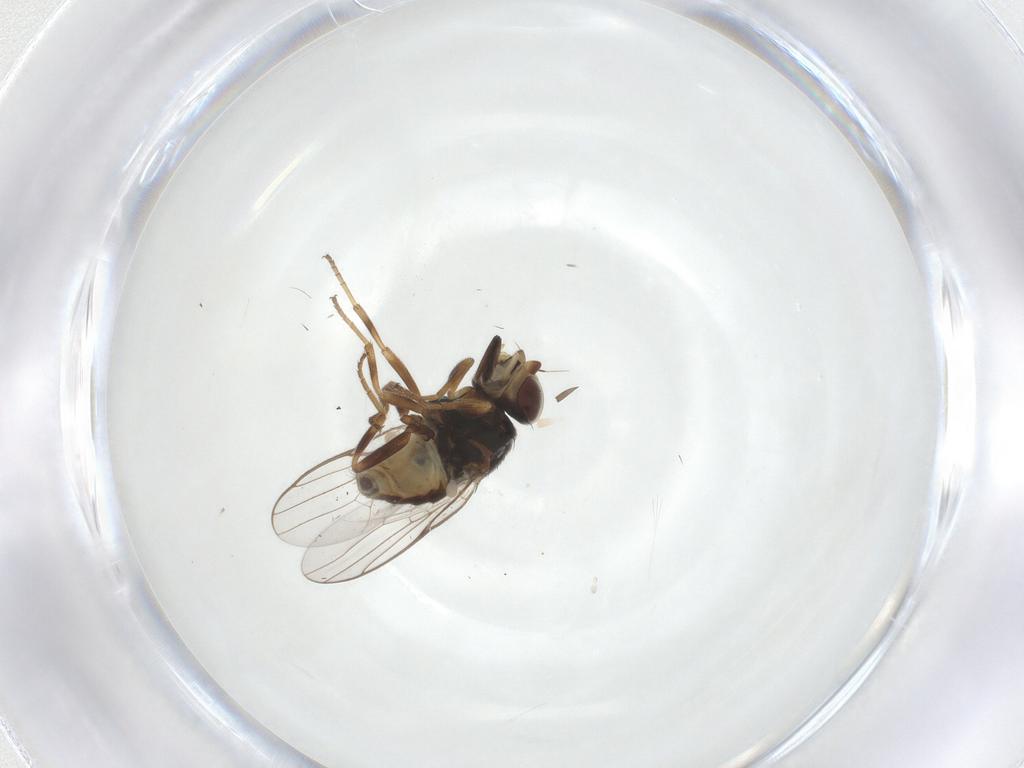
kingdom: Animalia
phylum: Arthropoda
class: Insecta
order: Diptera
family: Chloropidae
